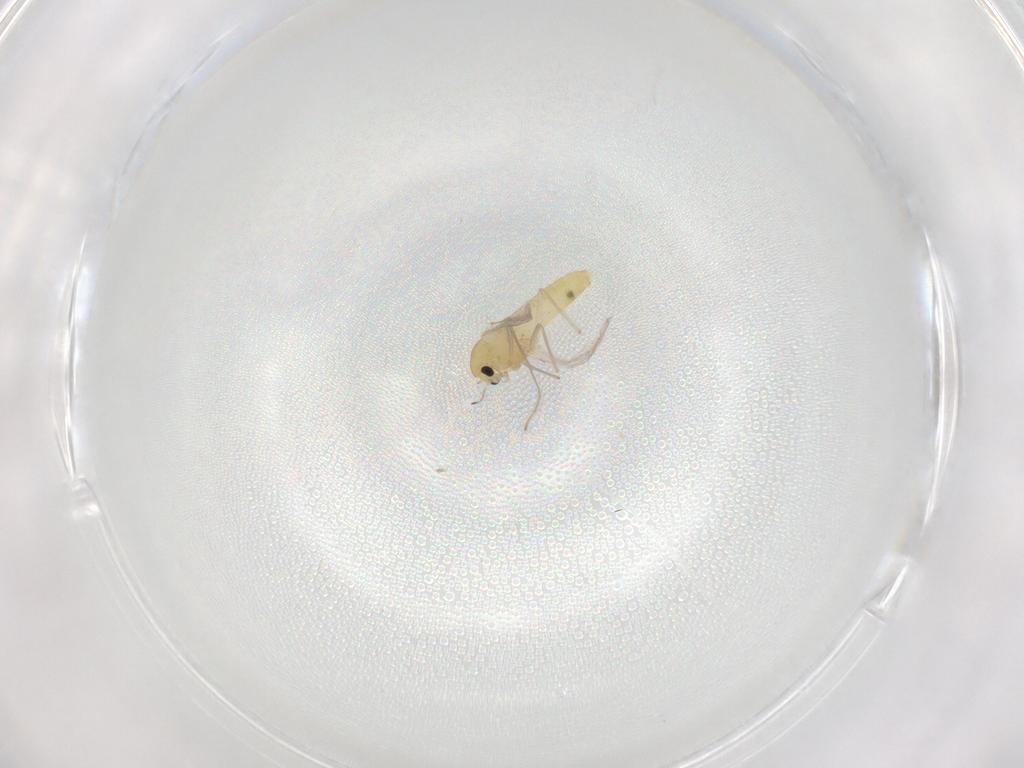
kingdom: Animalia
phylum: Arthropoda
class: Insecta
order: Diptera
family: Chironomidae
